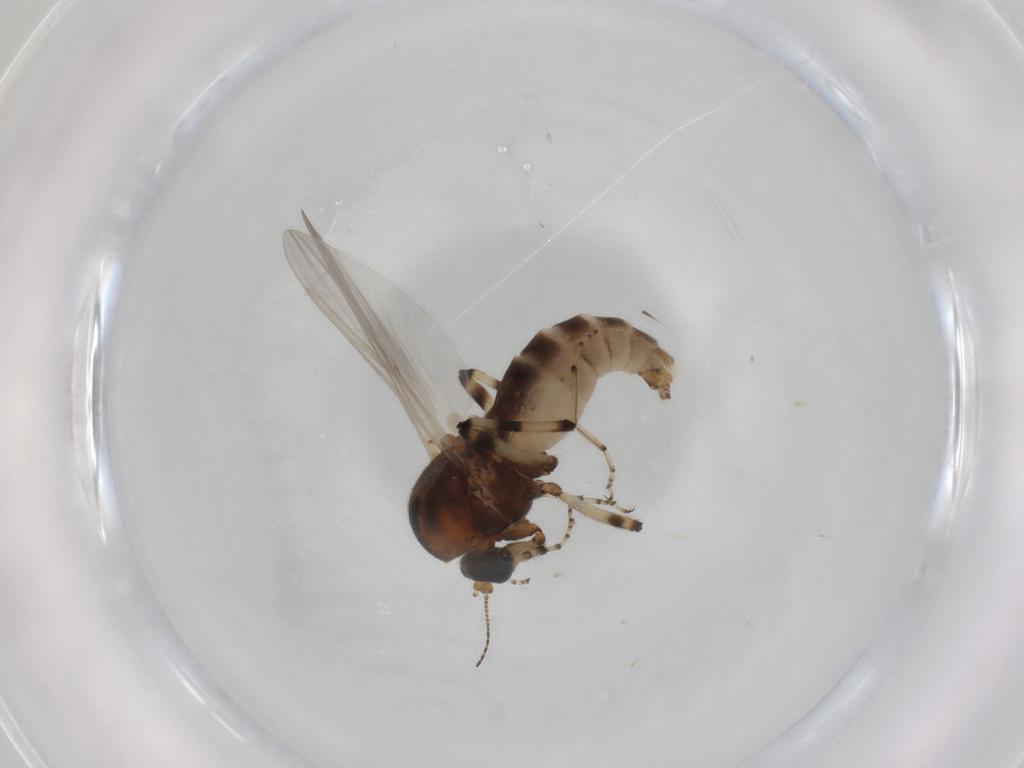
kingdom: Animalia
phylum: Arthropoda
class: Insecta
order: Diptera
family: Ceratopogonidae
